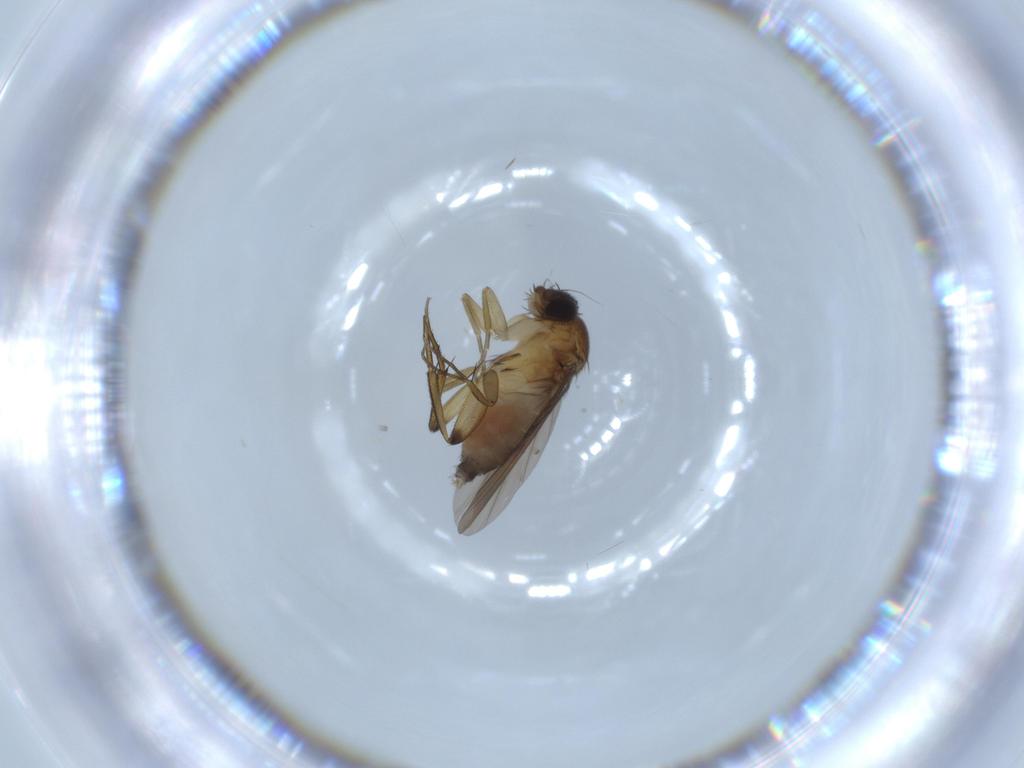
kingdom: Animalia
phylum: Arthropoda
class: Insecta
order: Diptera
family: Phoridae
